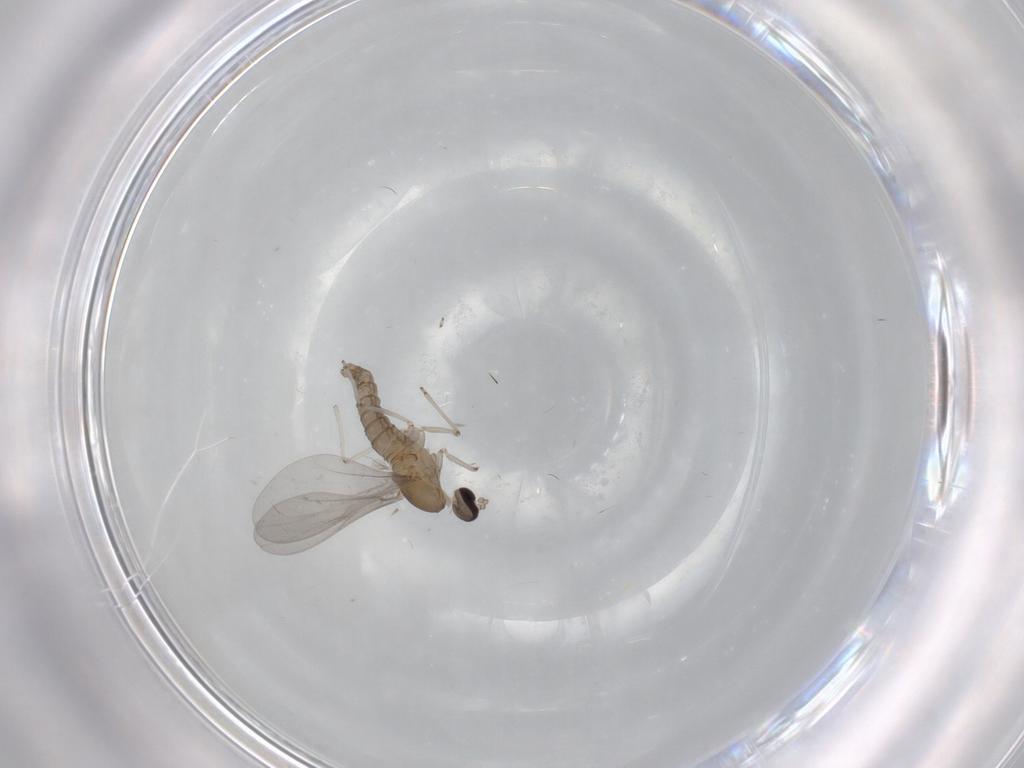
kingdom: Animalia
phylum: Arthropoda
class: Insecta
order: Diptera
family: Cecidomyiidae
